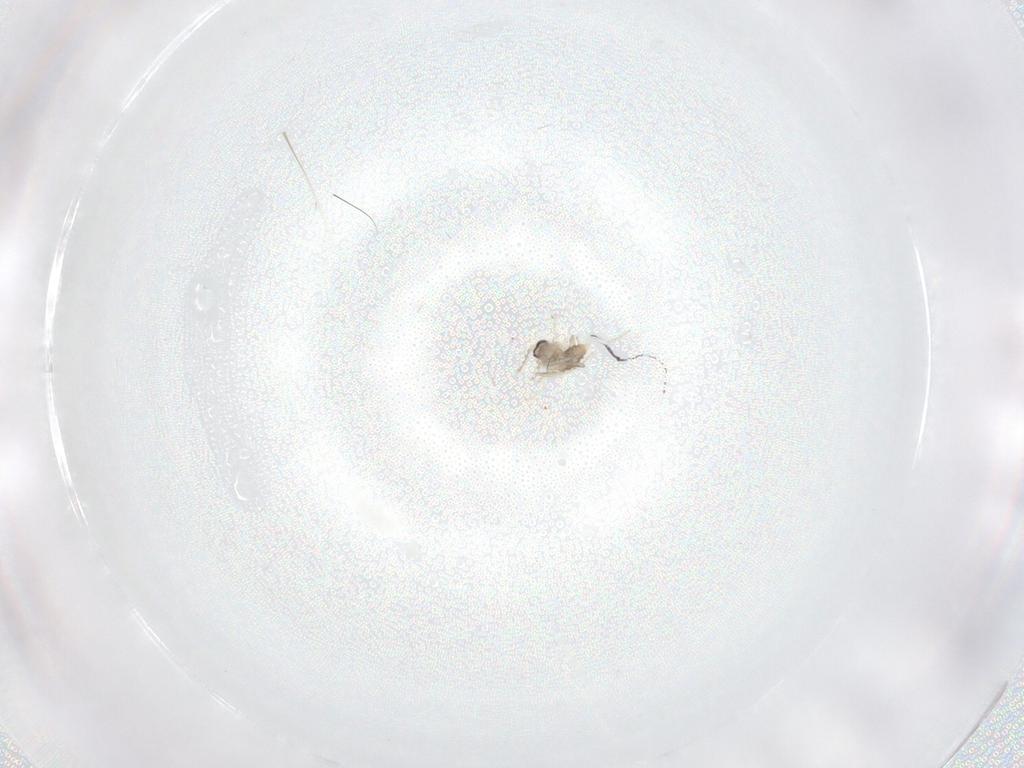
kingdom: Animalia
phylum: Arthropoda
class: Insecta
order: Diptera
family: Cecidomyiidae
